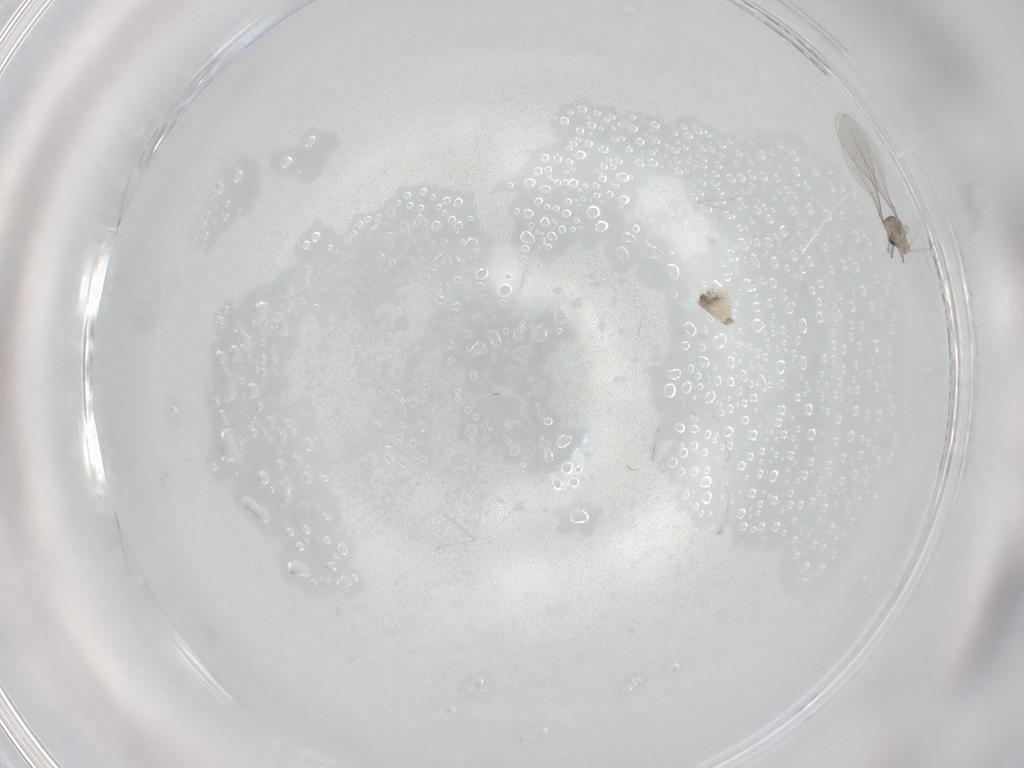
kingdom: Animalia
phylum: Arthropoda
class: Insecta
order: Diptera
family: Cecidomyiidae
